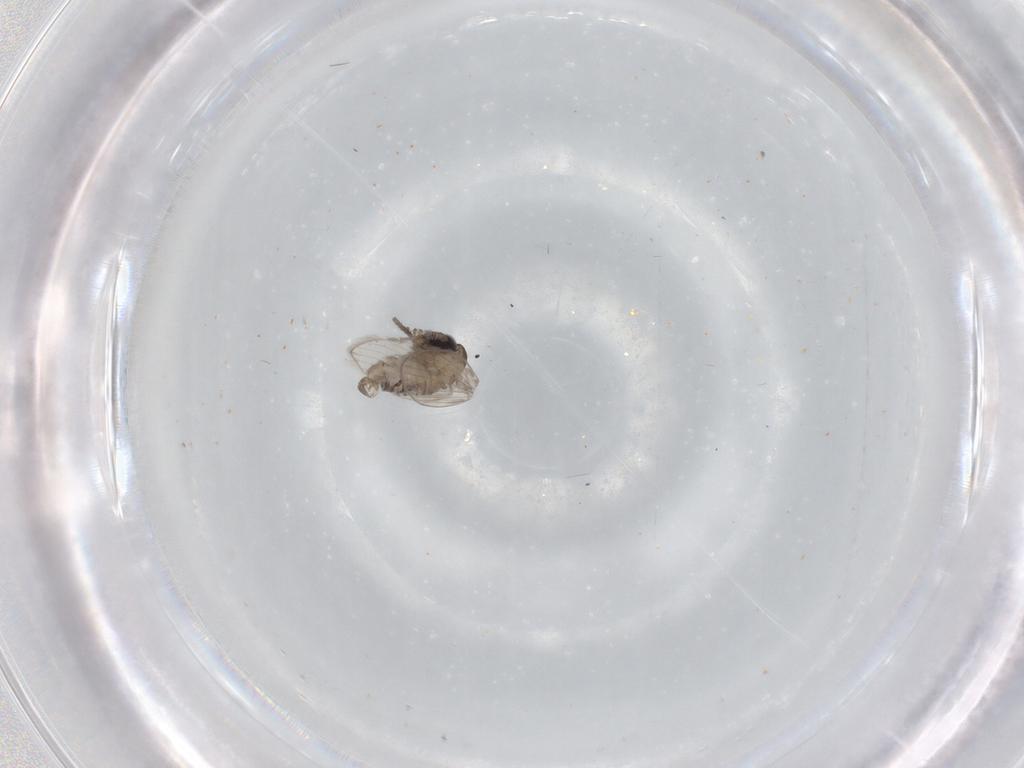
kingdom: Animalia
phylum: Arthropoda
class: Insecta
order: Diptera
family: Psychodidae
